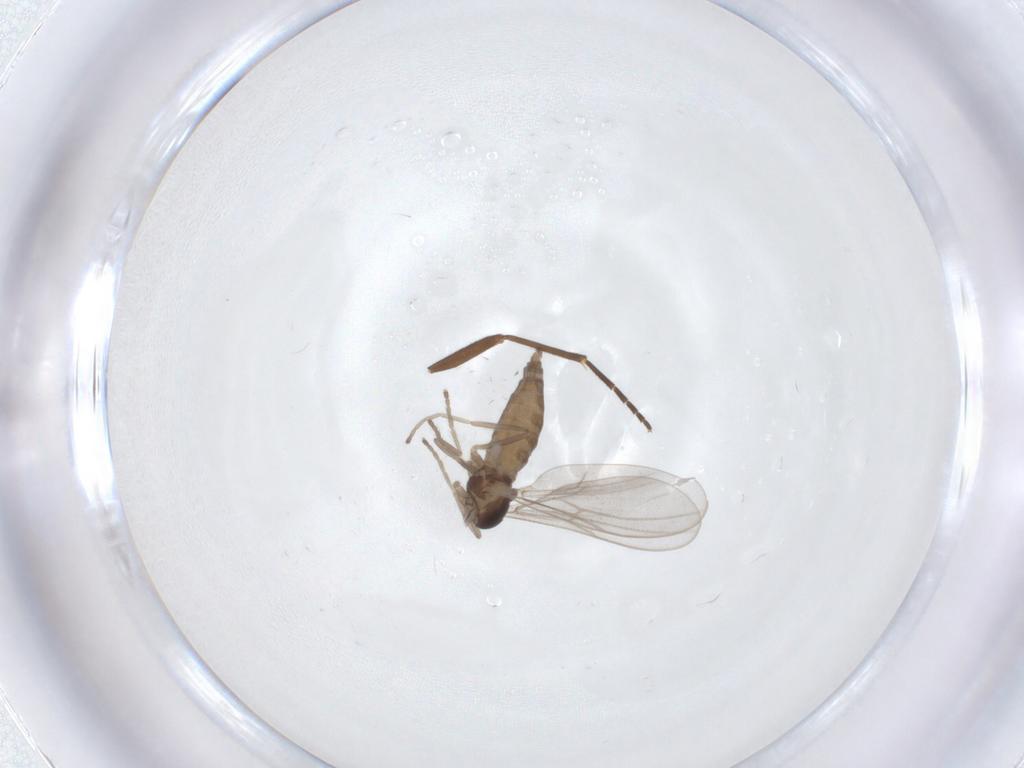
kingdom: Animalia
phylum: Arthropoda
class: Insecta
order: Diptera
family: Cecidomyiidae
